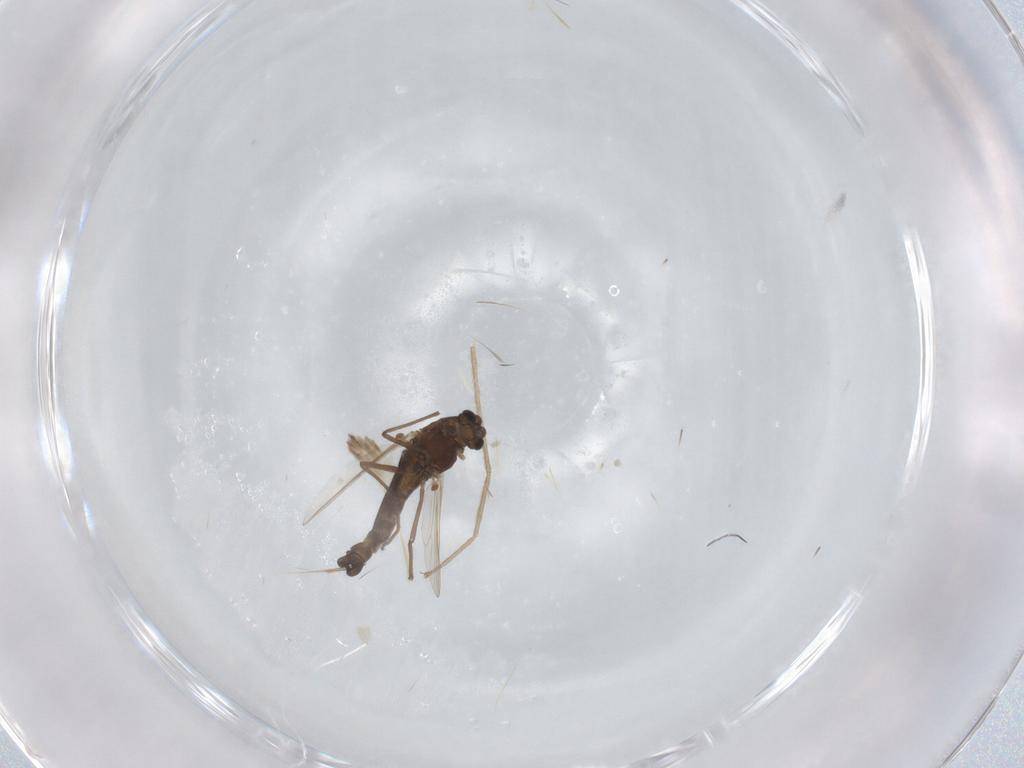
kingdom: Animalia
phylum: Arthropoda
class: Insecta
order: Diptera
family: Chironomidae
